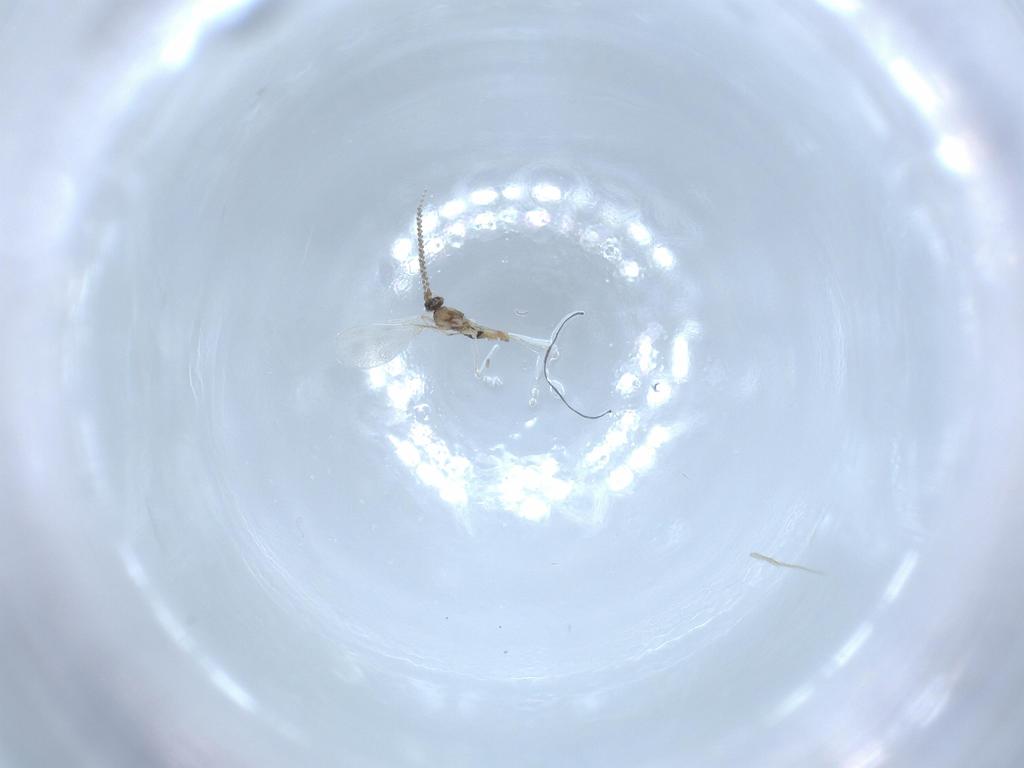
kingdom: Animalia
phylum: Arthropoda
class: Insecta
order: Diptera
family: Cecidomyiidae
